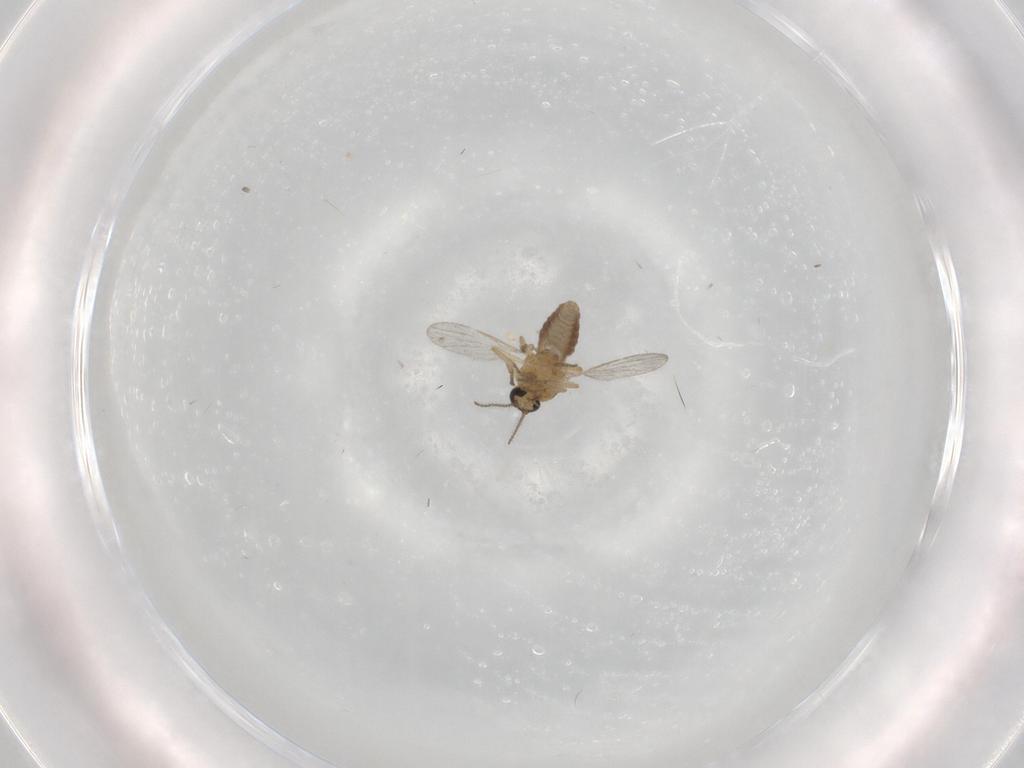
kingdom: Animalia
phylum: Arthropoda
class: Insecta
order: Diptera
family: Ceratopogonidae
